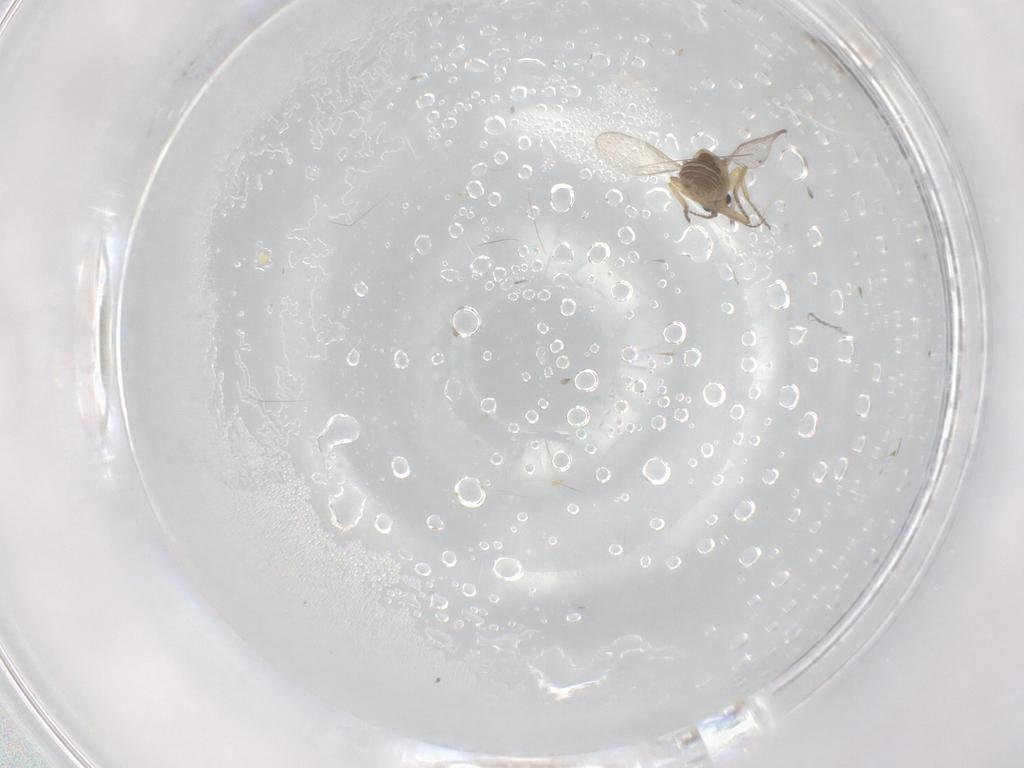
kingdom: Animalia
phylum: Arthropoda
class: Insecta
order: Diptera
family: Ceratopogonidae
